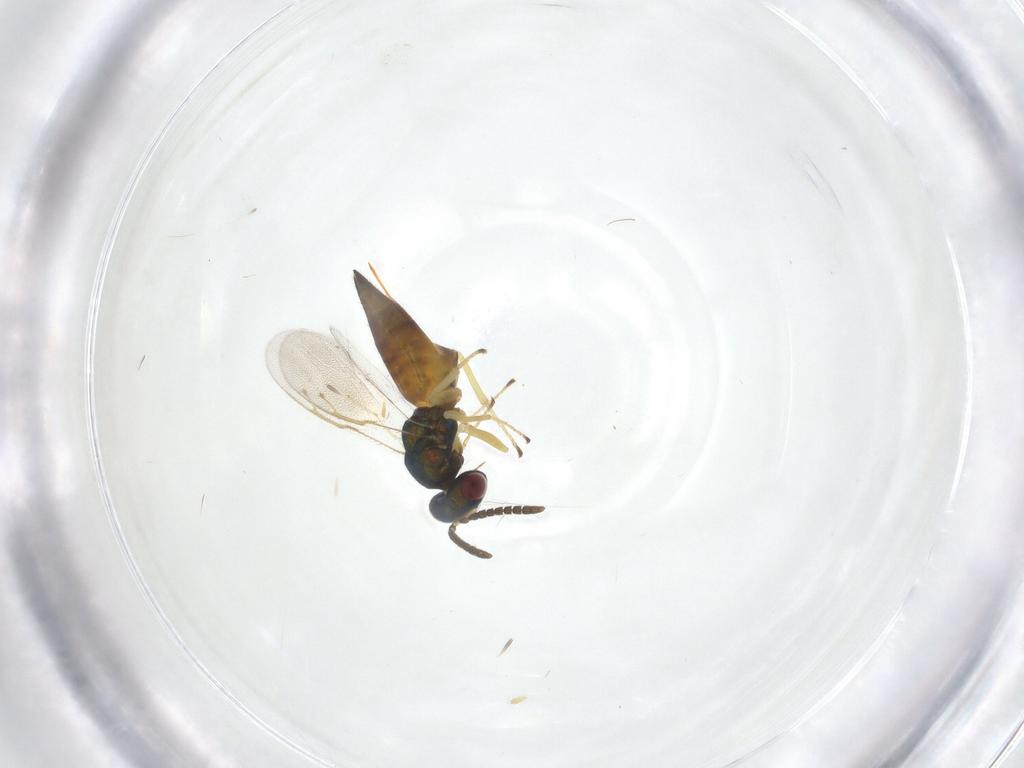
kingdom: Animalia
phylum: Arthropoda
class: Insecta
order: Hymenoptera
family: Pteromalidae
